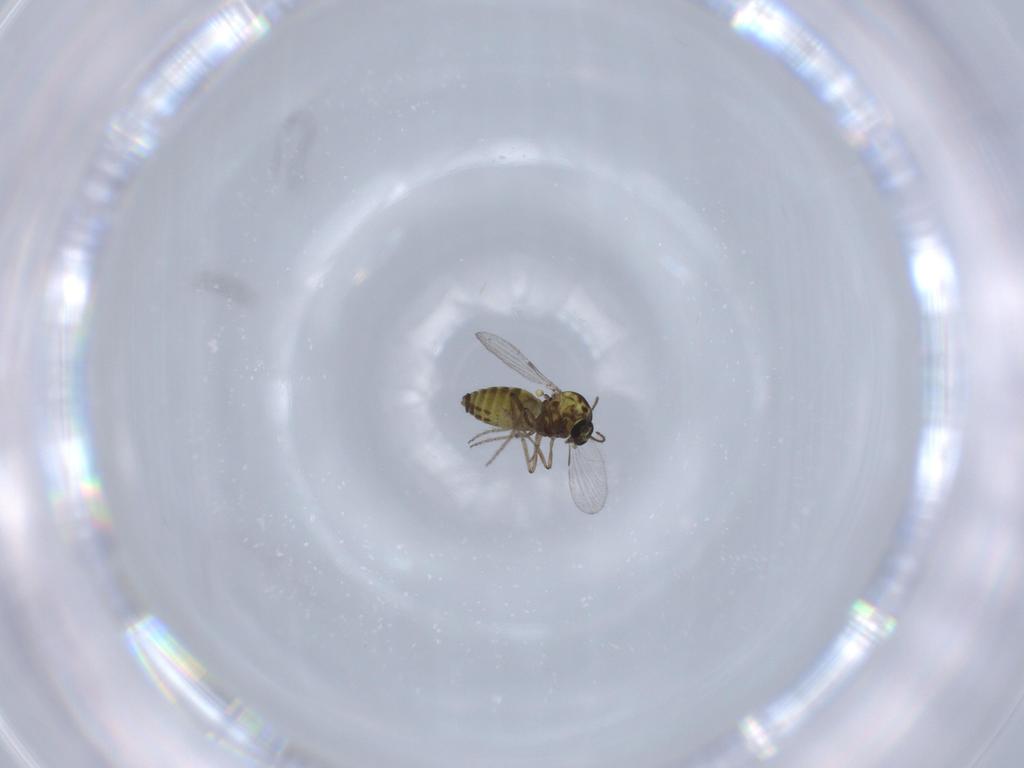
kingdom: Animalia
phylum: Arthropoda
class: Insecta
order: Diptera
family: Ceratopogonidae
